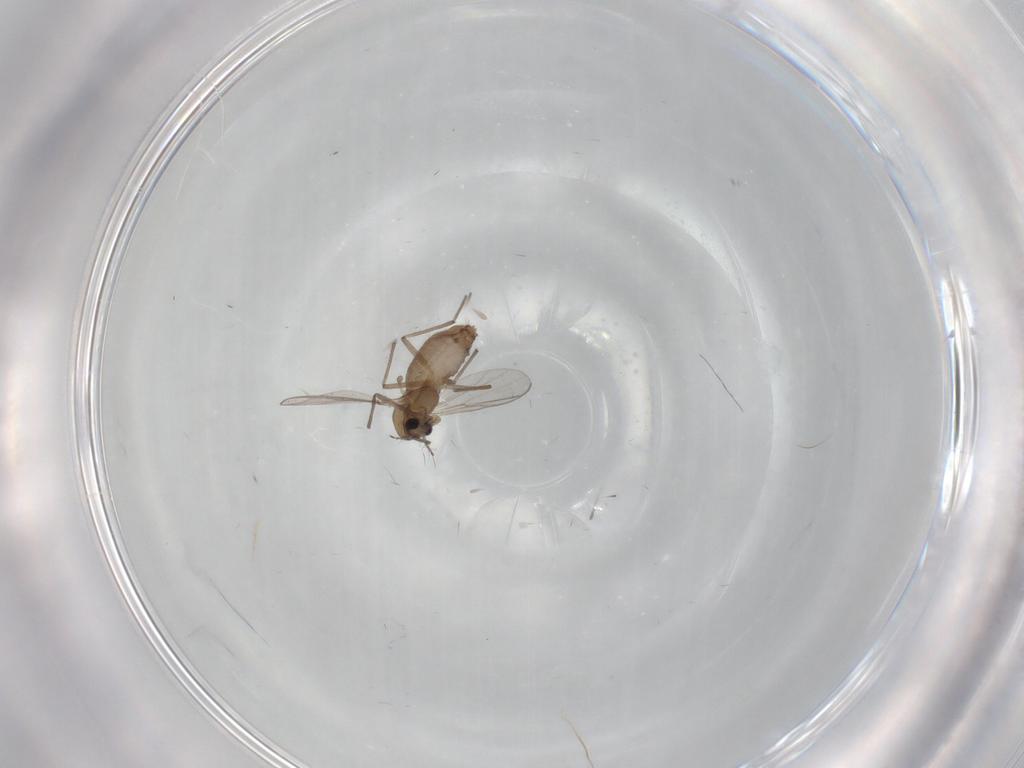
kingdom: Animalia
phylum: Arthropoda
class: Insecta
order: Diptera
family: Chironomidae
